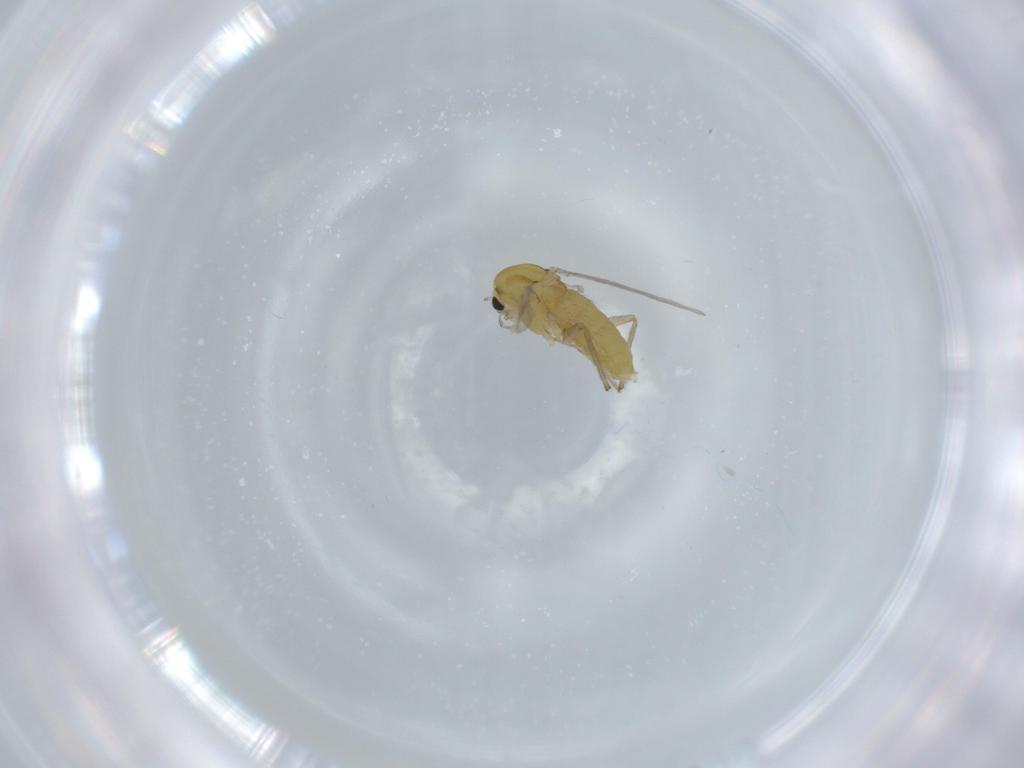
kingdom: Animalia
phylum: Arthropoda
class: Insecta
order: Diptera
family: Chironomidae
